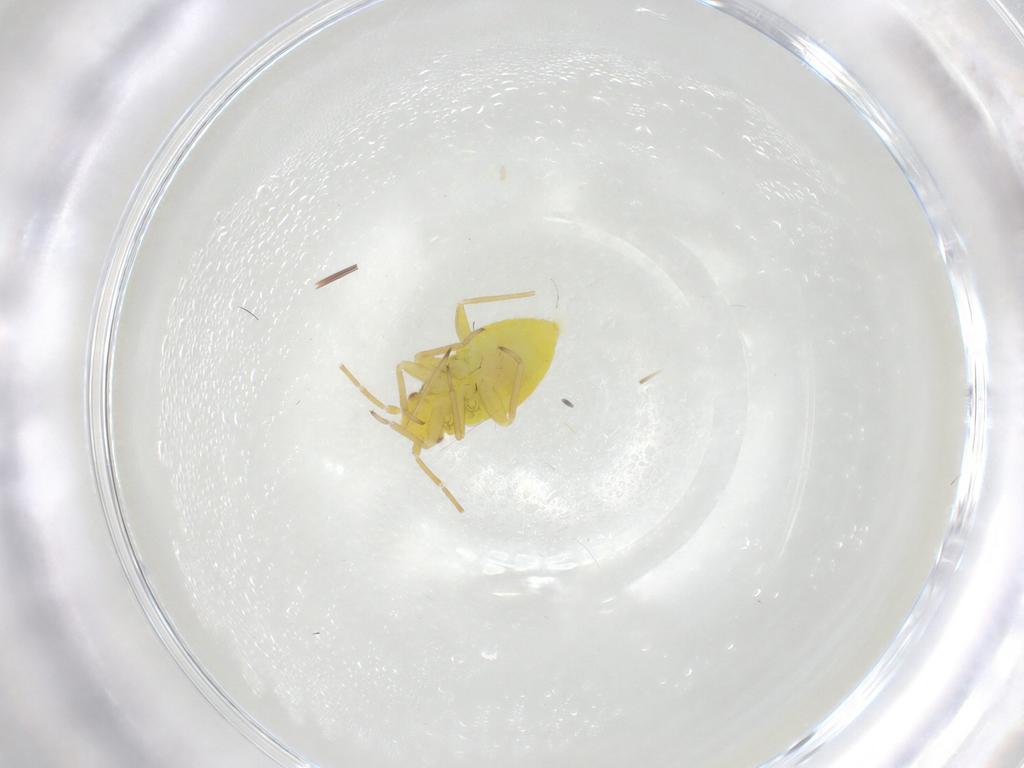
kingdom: Animalia
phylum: Arthropoda
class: Insecta
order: Hemiptera
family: Miridae
